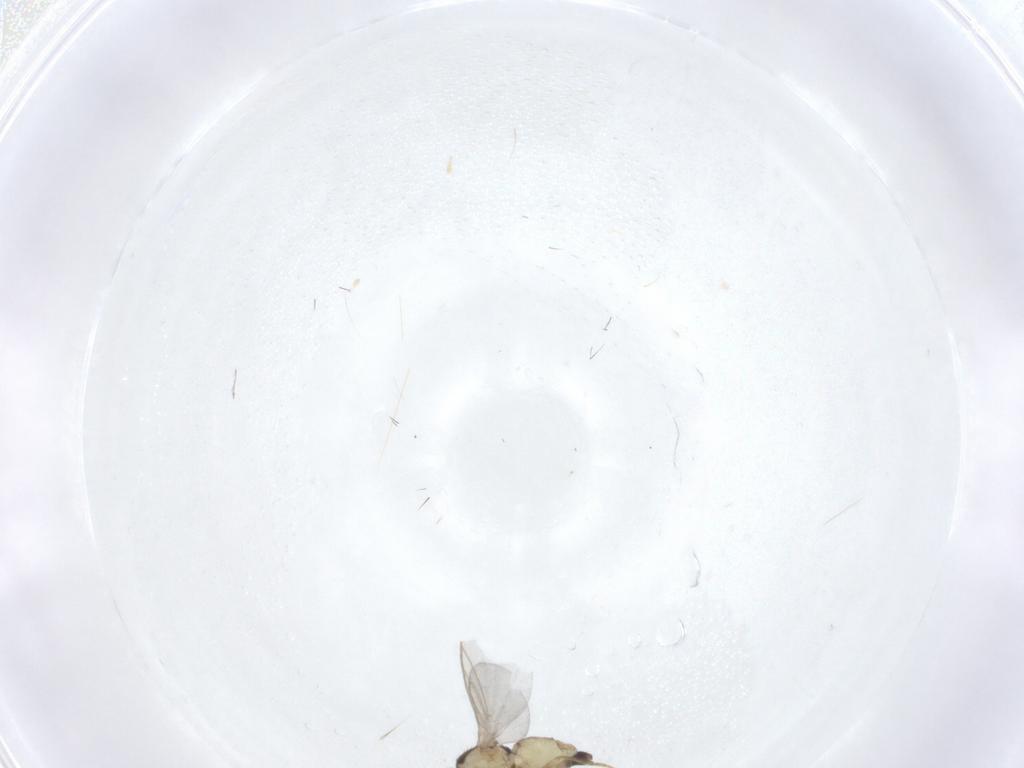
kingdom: Animalia
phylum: Arthropoda
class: Insecta
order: Diptera
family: Agromyzidae
